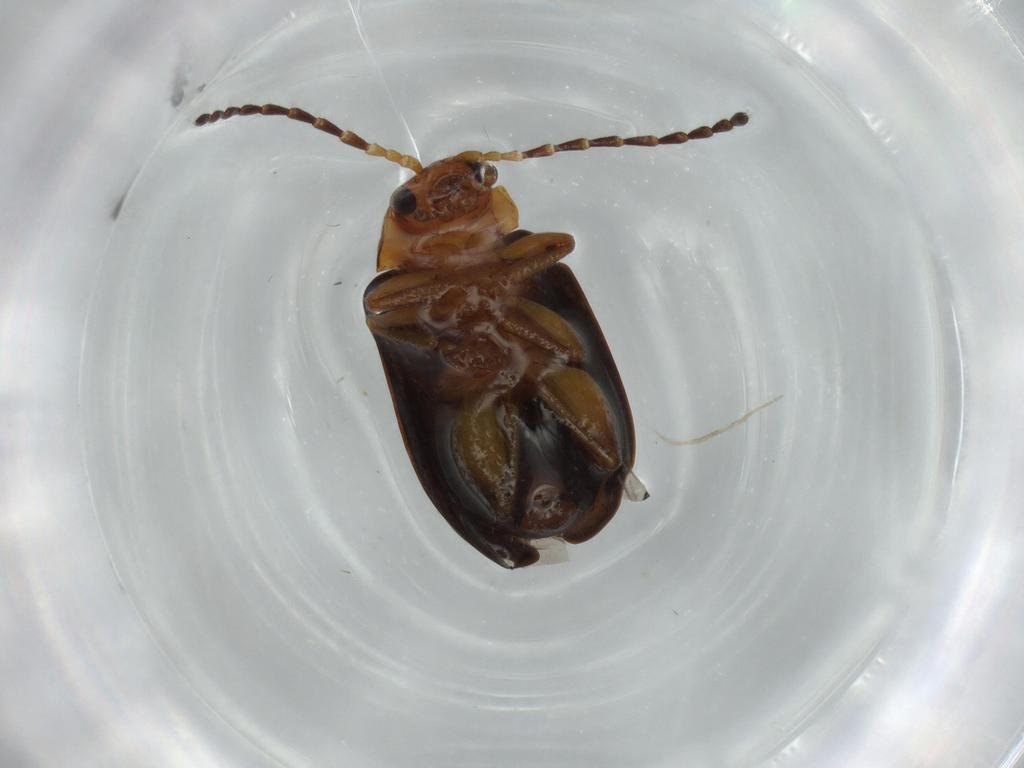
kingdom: Animalia
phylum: Arthropoda
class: Insecta
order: Coleoptera
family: Chrysomelidae
